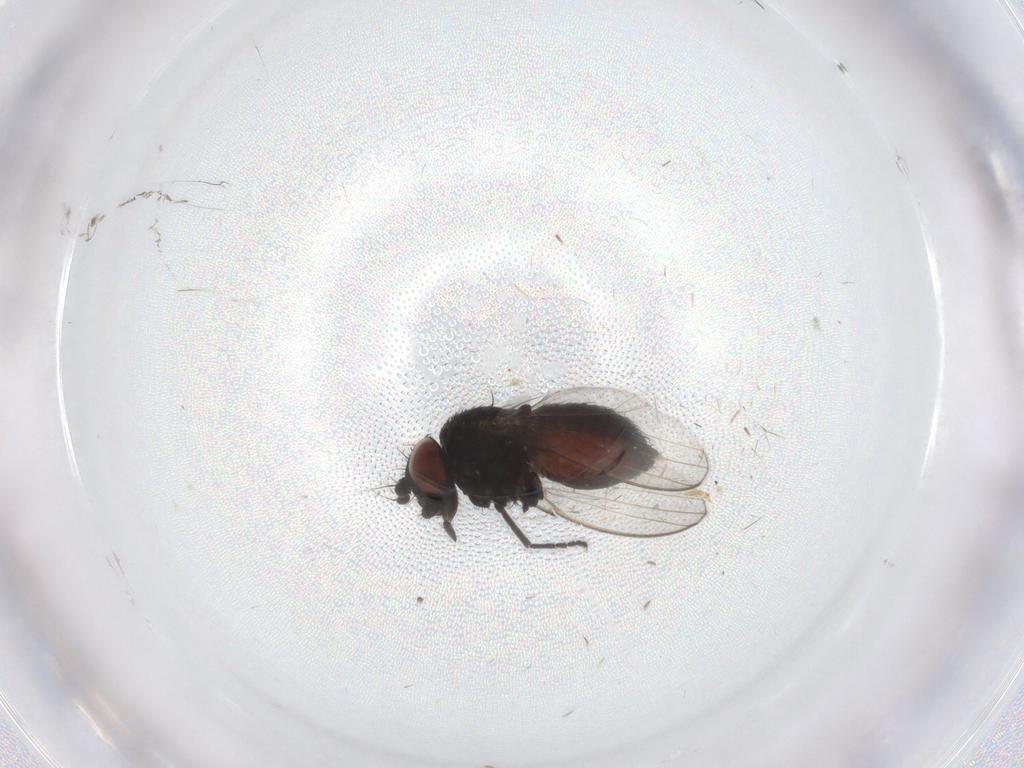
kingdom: Animalia
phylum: Arthropoda
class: Insecta
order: Diptera
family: Milichiidae
